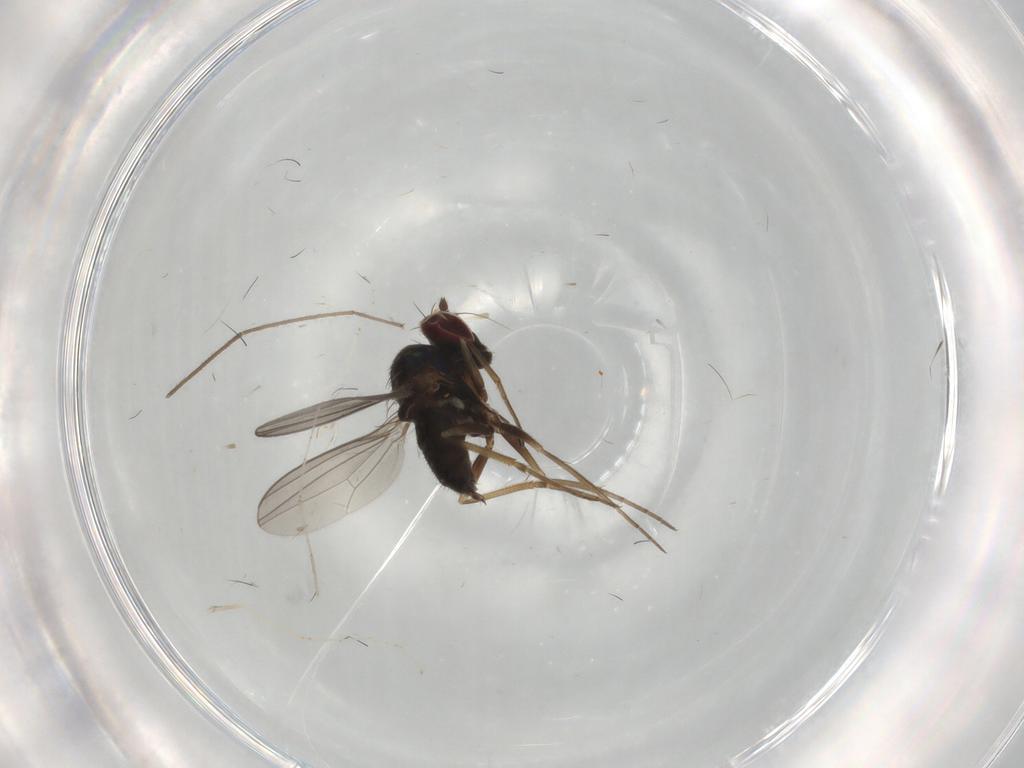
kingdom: Animalia
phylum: Arthropoda
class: Insecta
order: Diptera
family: Dolichopodidae
